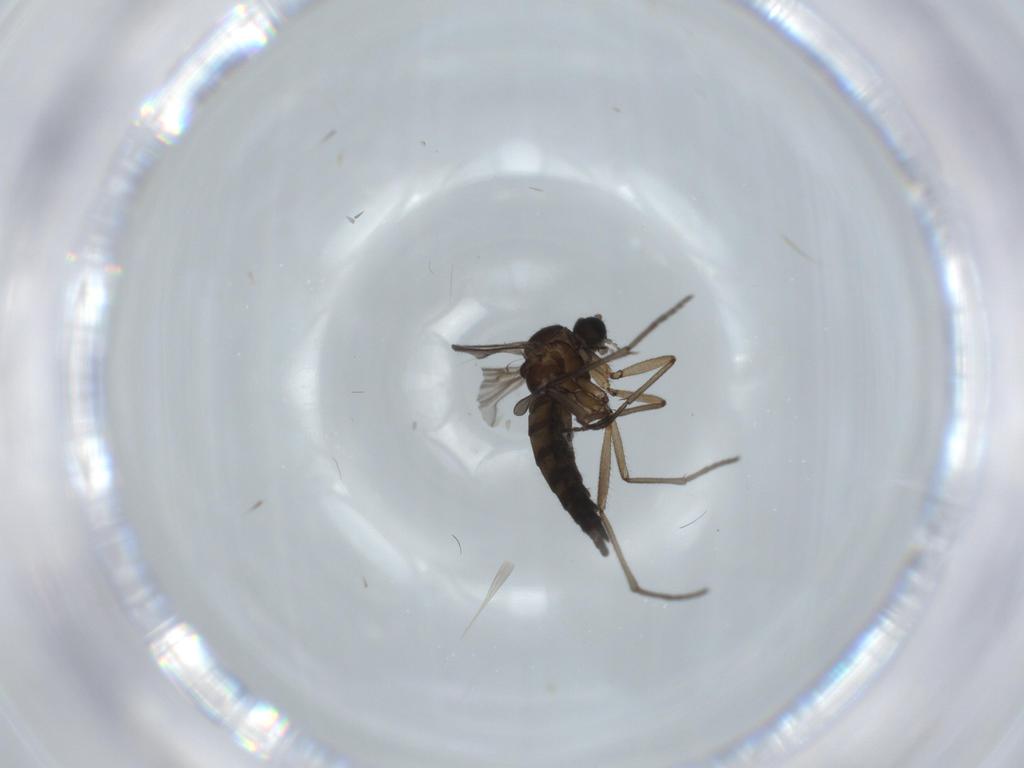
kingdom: Animalia
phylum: Arthropoda
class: Insecta
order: Diptera
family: Sciaridae
